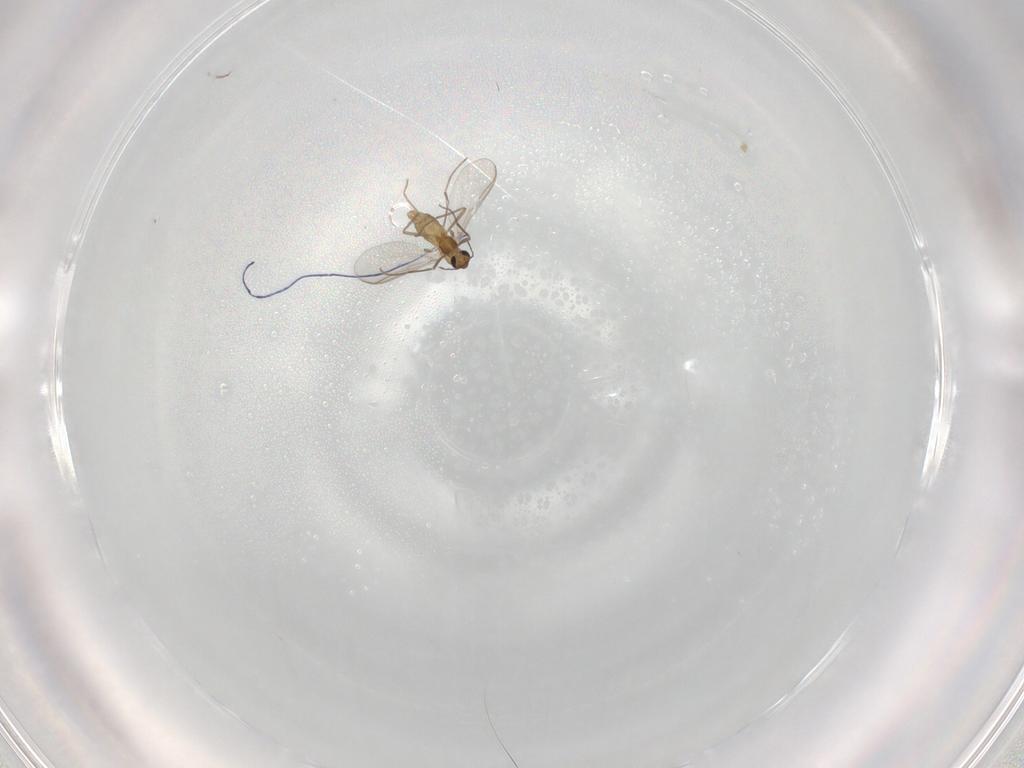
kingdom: Animalia
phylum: Arthropoda
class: Insecta
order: Diptera
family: Chironomidae
